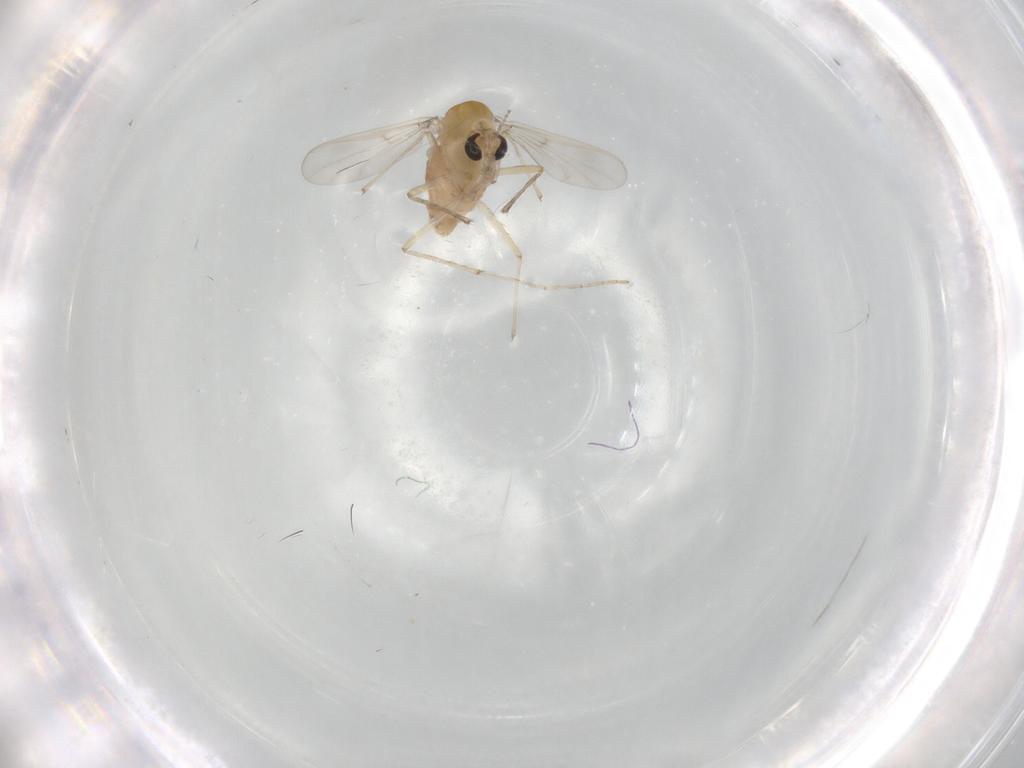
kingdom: Animalia
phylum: Arthropoda
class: Insecta
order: Diptera
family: Chironomidae
